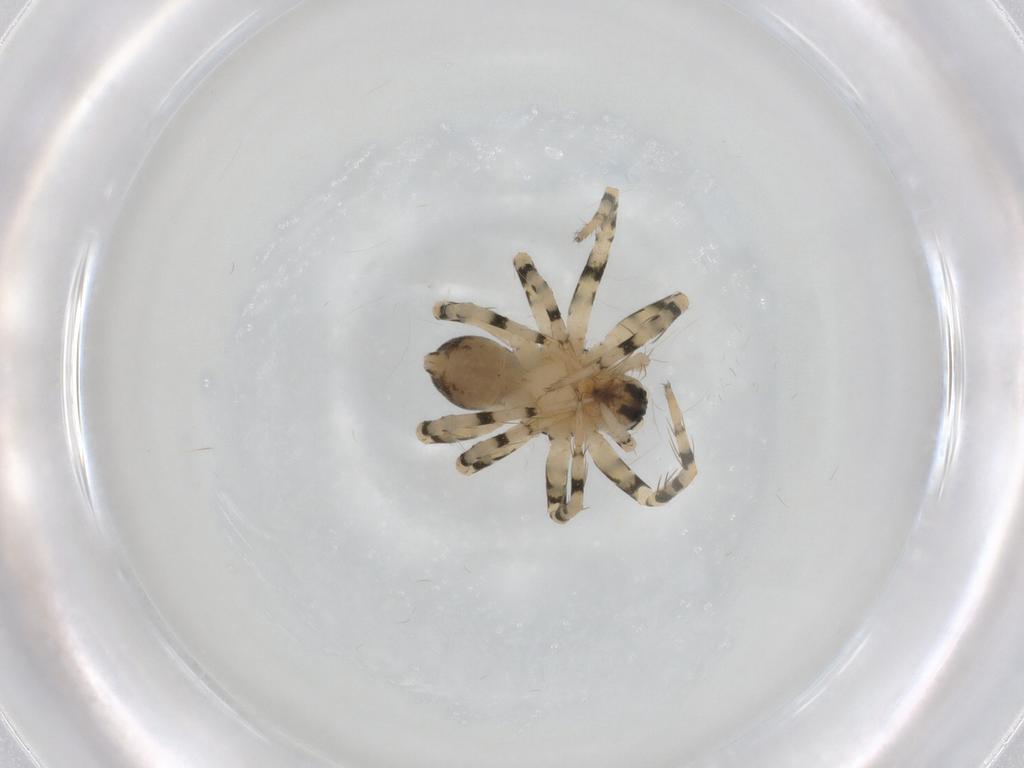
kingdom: Animalia
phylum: Arthropoda
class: Arachnida
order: Araneae
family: Lycosidae
